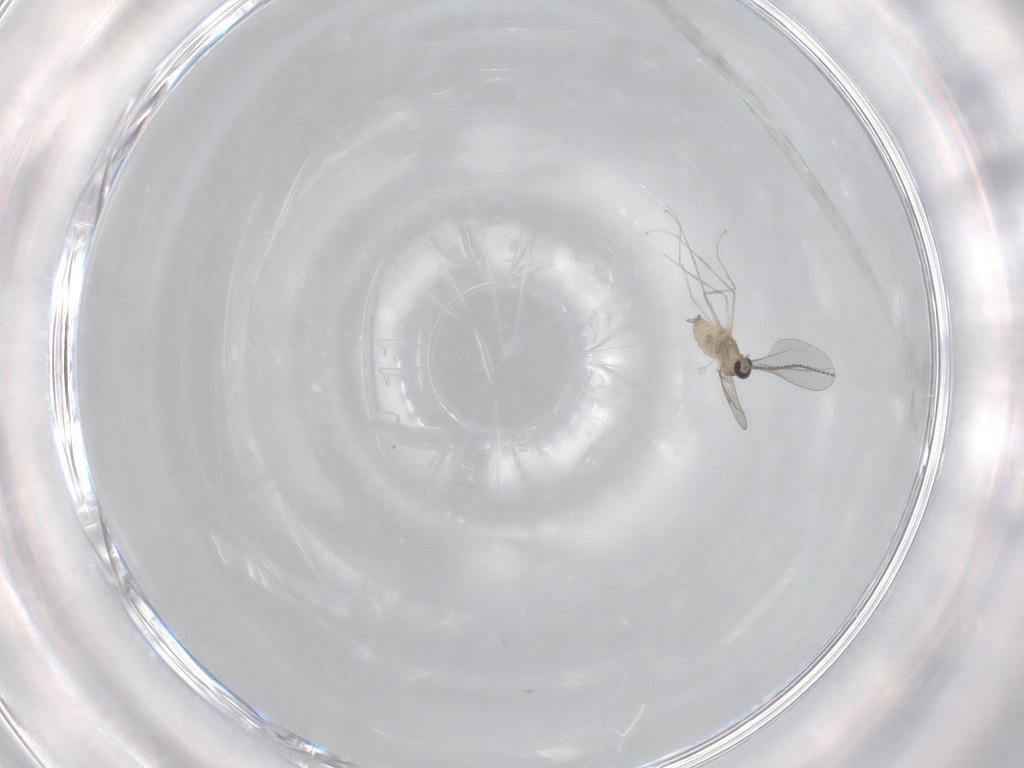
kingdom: Animalia
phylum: Arthropoda
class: Insecta
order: Diptera
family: Cecidomyiidae
